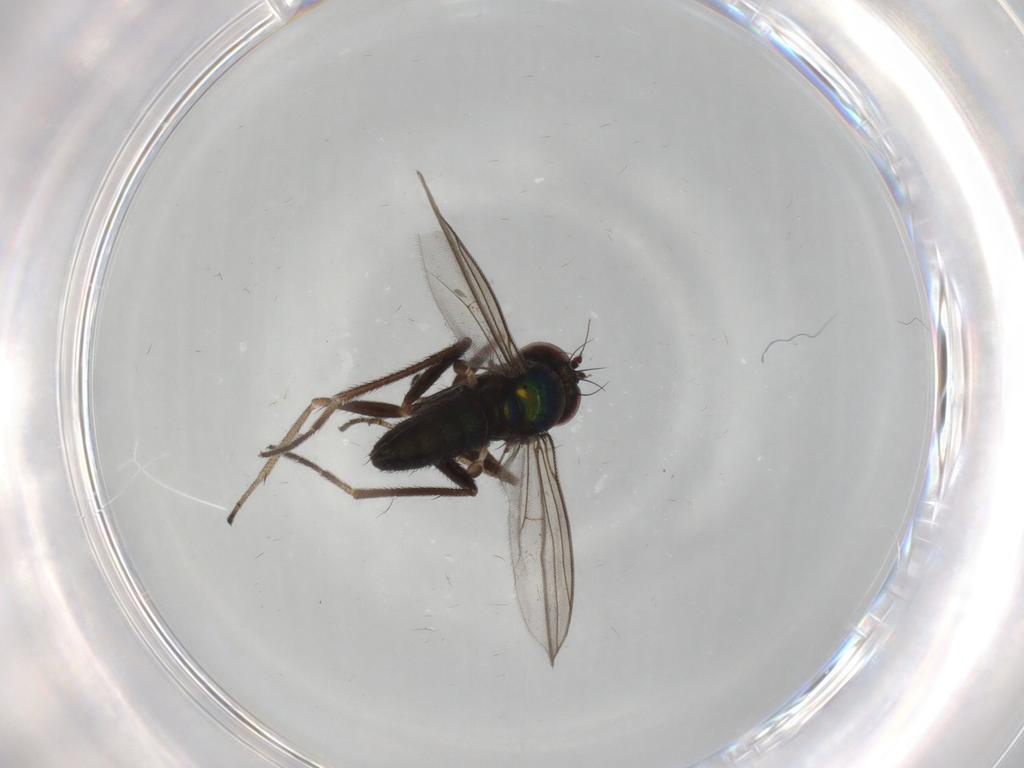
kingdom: Animalia
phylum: Arthropoda
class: Insecta
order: Diptera
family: Dolichopodidae
